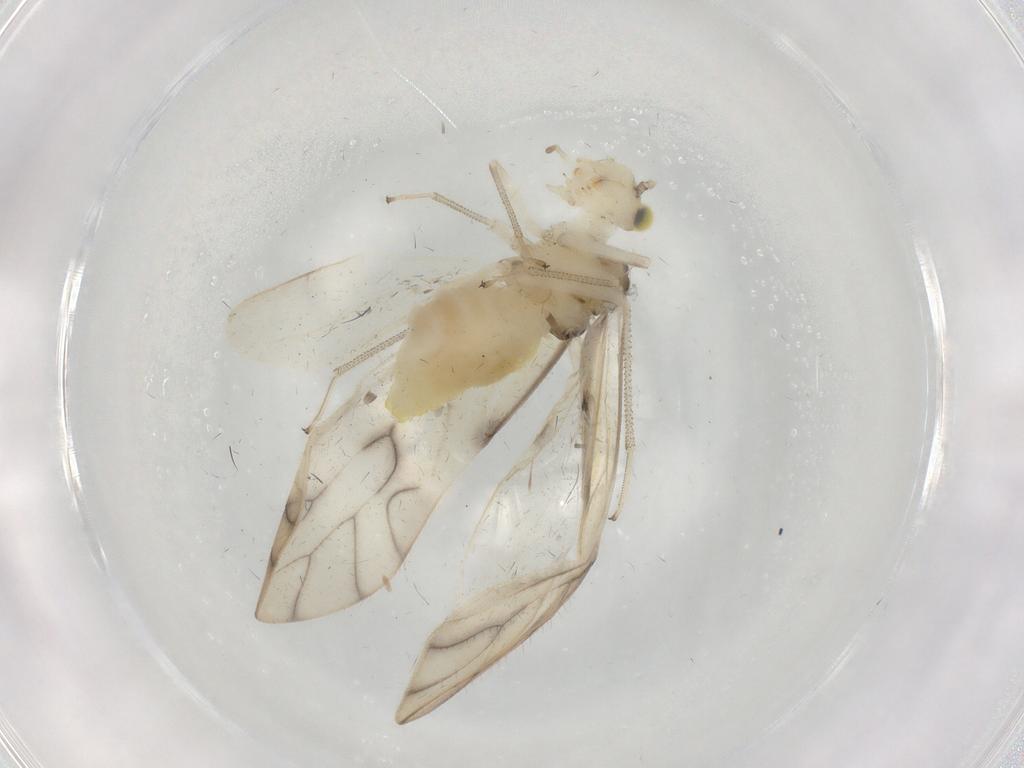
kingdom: Animalia
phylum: Arthropoda
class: Insecta
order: Psocodea
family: Caeciliusidae
